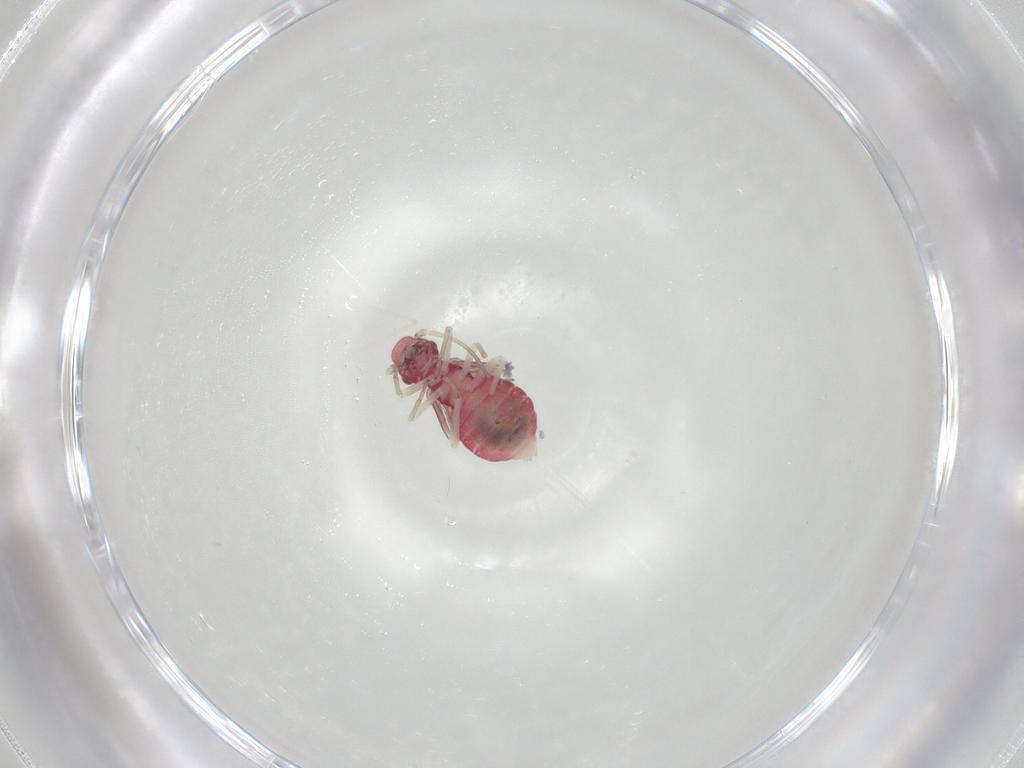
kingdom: Animalia
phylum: Arthropoda
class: Insecta
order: Psocodea
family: Caeciliusidae
